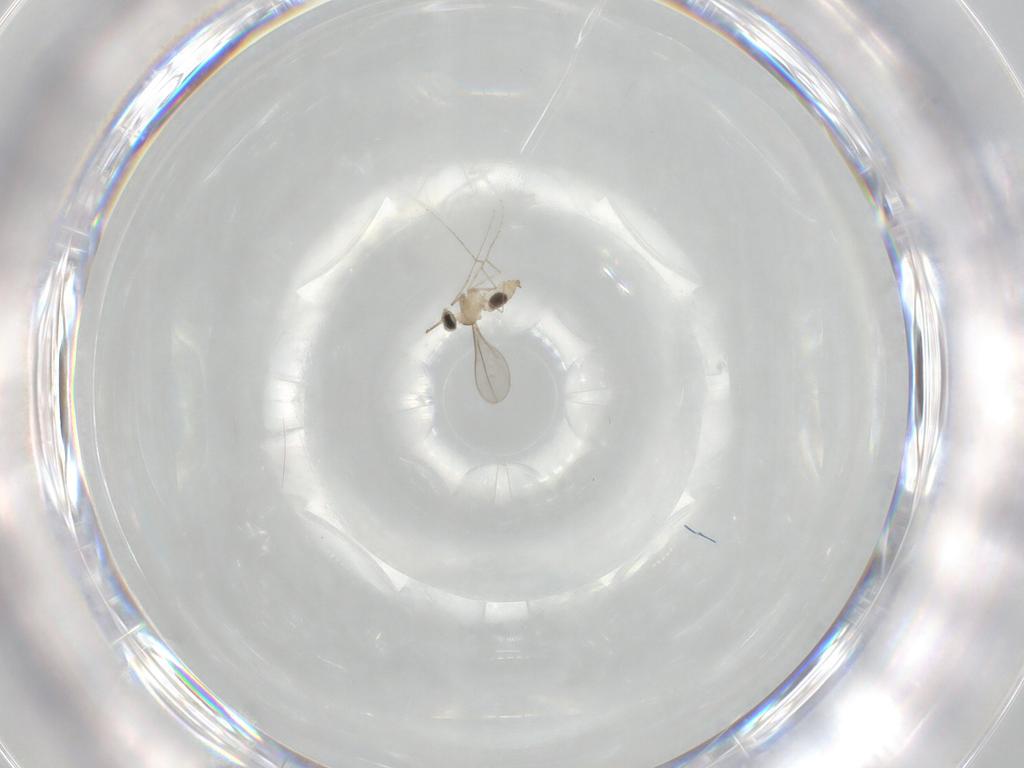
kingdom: Animalia
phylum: Arthropoda
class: Insecta
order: Diptera
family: Cecidomyiidae
